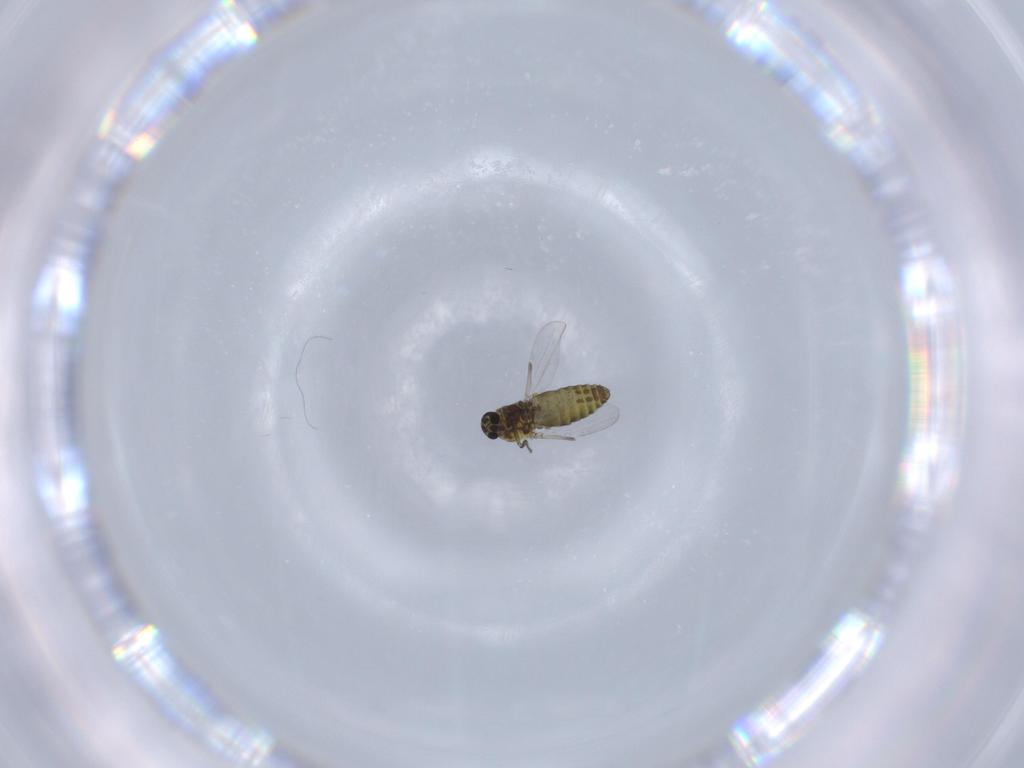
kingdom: Animalia
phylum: Arthropoda
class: Insecta
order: Diptera
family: Ceratopogonidae
